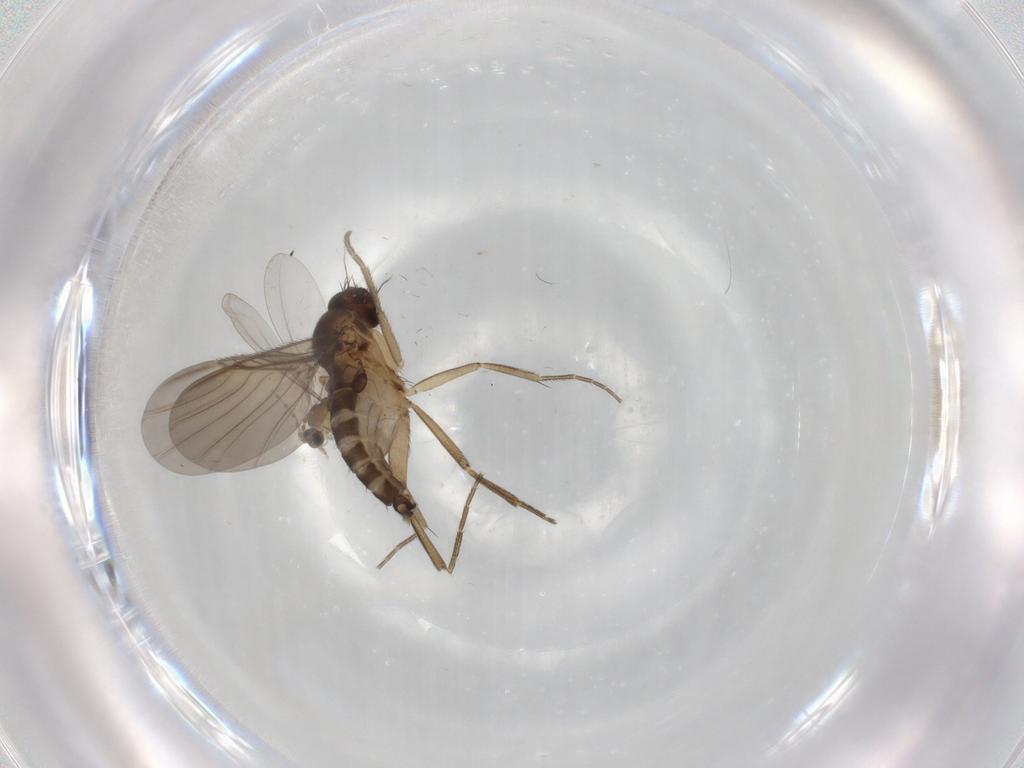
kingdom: Animalia
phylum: Arthropoda
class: Insecta
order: Diptera
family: Phoridae
